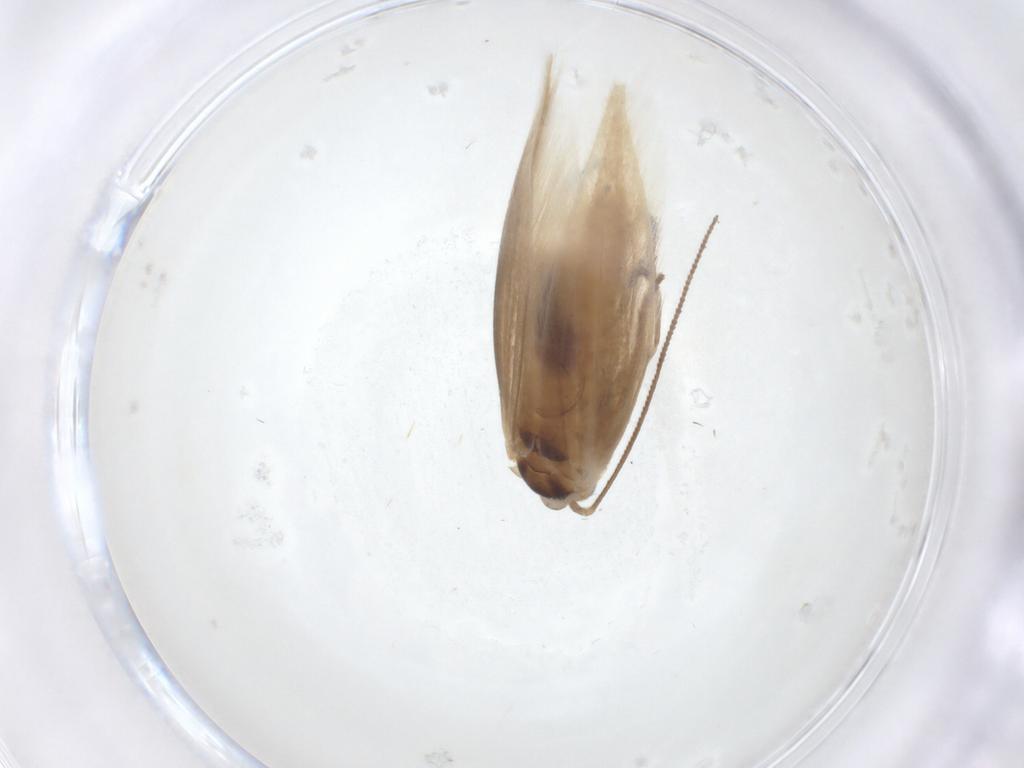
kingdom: Animalia
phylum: Arthropoda
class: Insecta
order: Lepidoptera
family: Bucculatricidae
